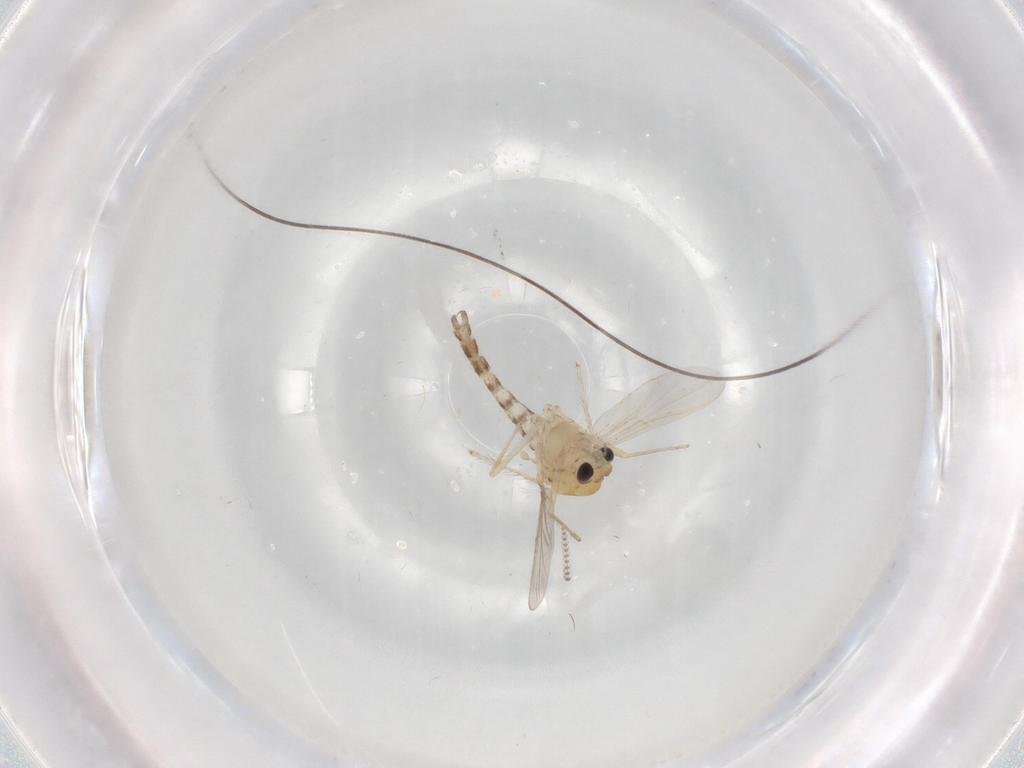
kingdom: Animalia
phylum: Arthropoda
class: Insecta
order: Diptera
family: Chironomidae
